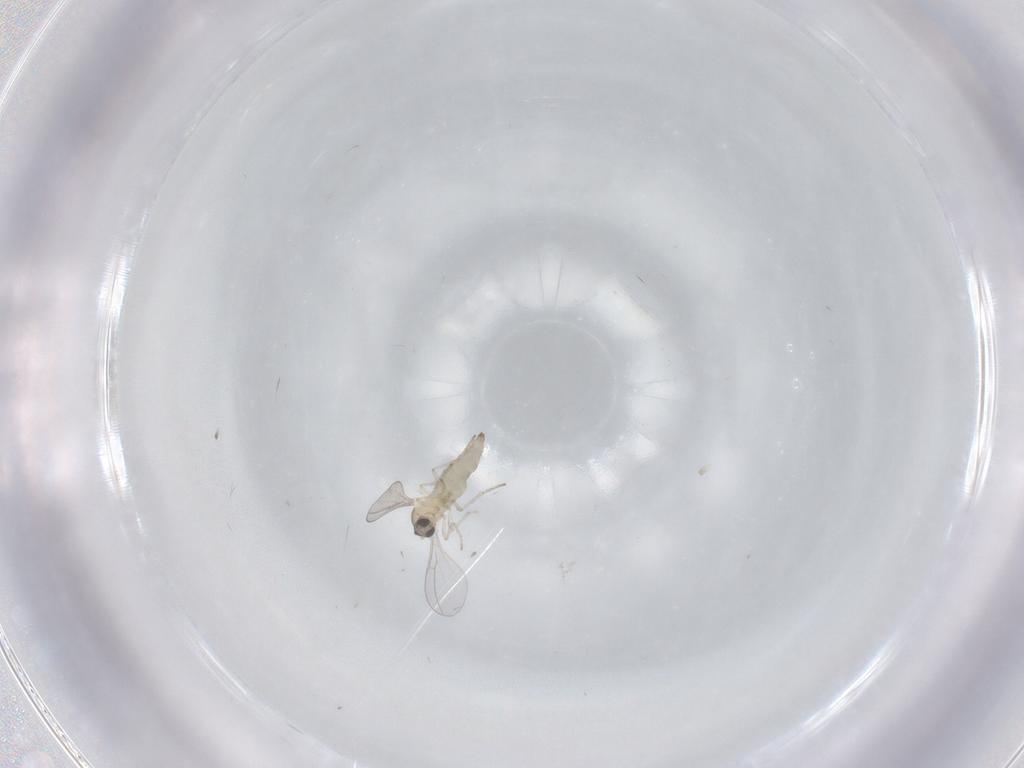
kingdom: Animalia
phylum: Arthropoda
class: Insecta
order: Diptera
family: Cecidomyiidae
